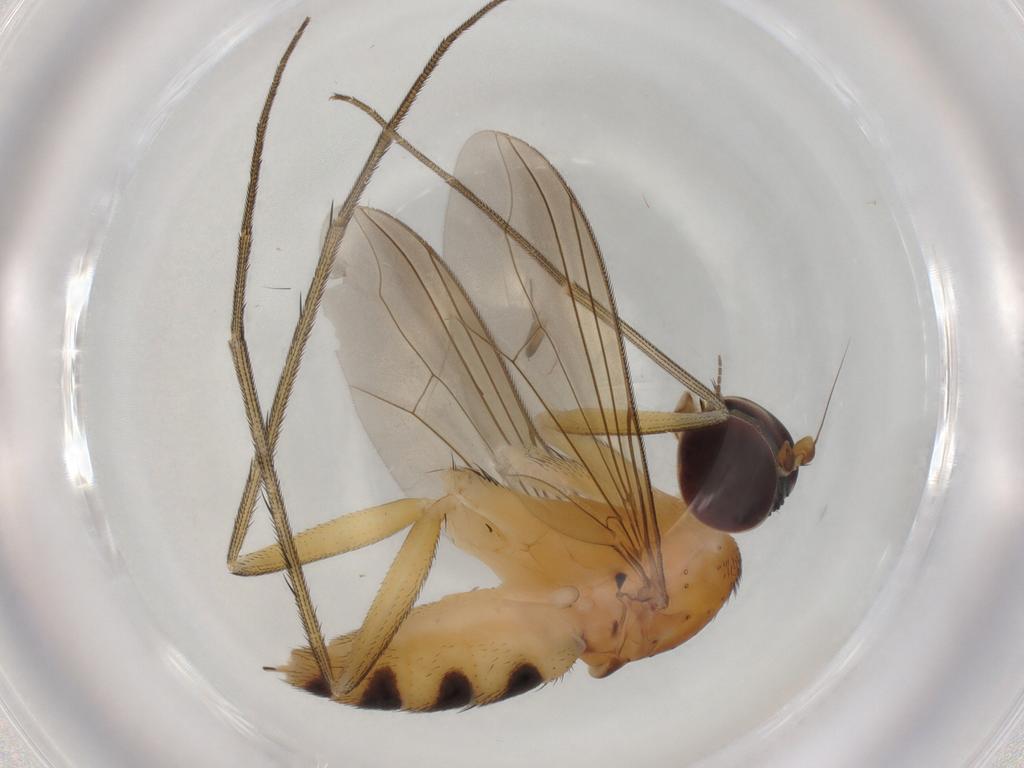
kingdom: Animalia
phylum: Arthropoda
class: Insecta
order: Diptera
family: Dolichopodidae
